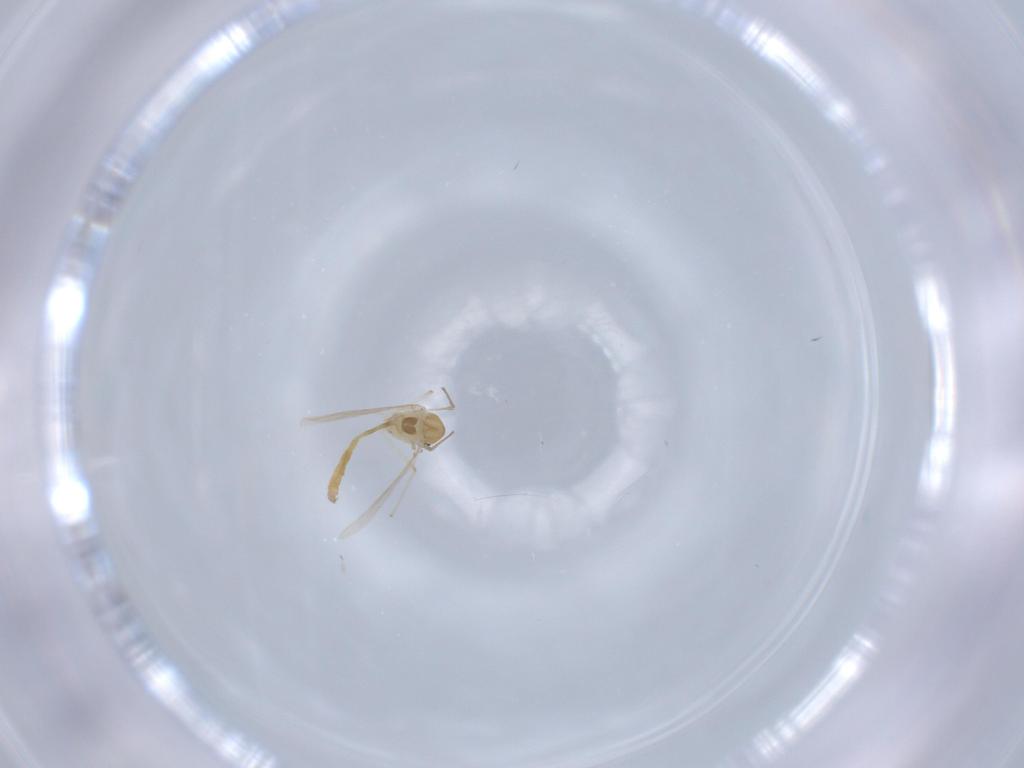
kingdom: Animalia
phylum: Arthropoda
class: Insecta
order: Diptera
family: Chironomidae
